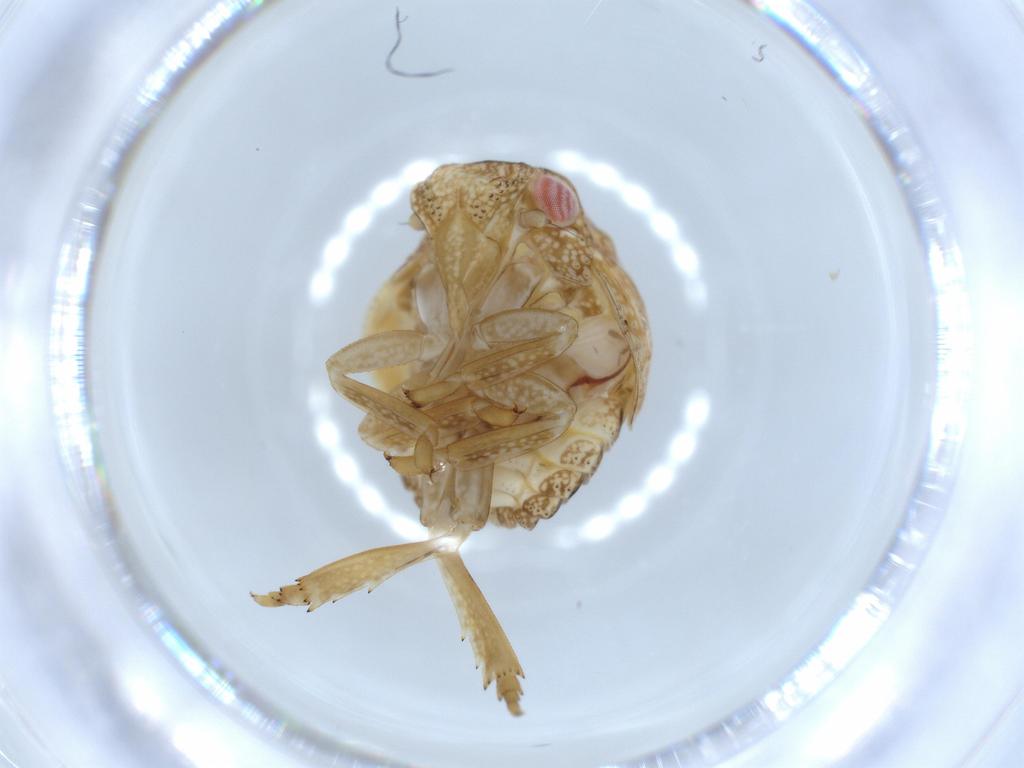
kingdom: Animalia
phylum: Arthropoda
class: Insecta
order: Hemiptera
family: Acanaloniidae
